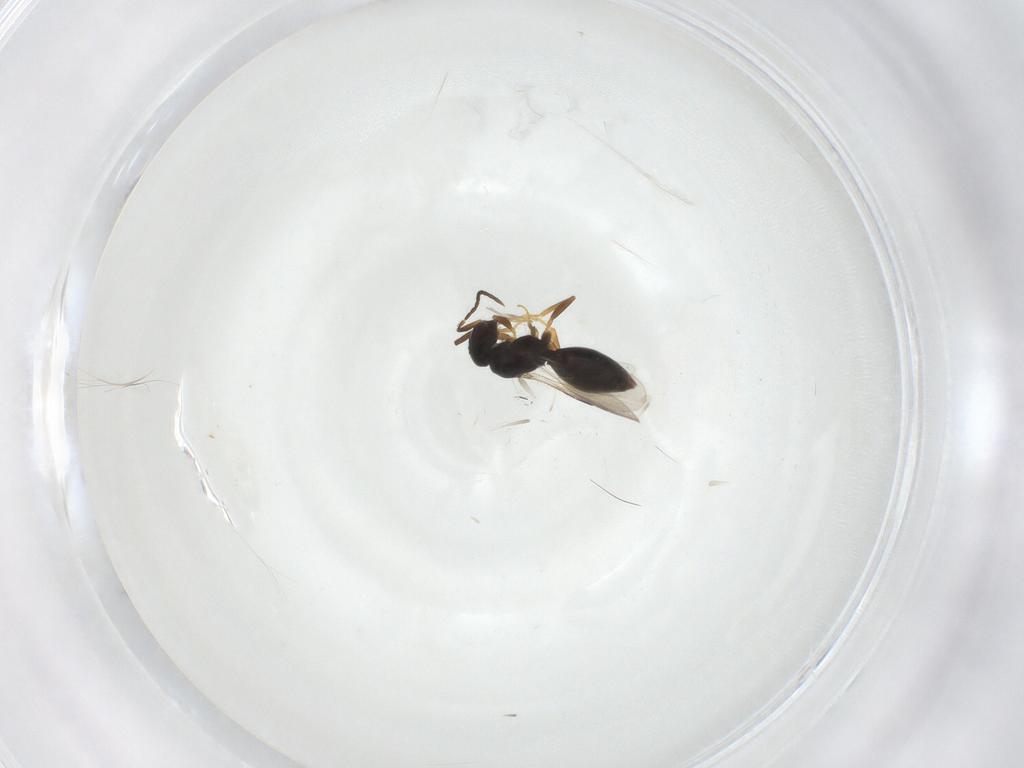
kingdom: Animalia
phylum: Arthropoda
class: Insecta
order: Hymenoptera
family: Megaspilidae
